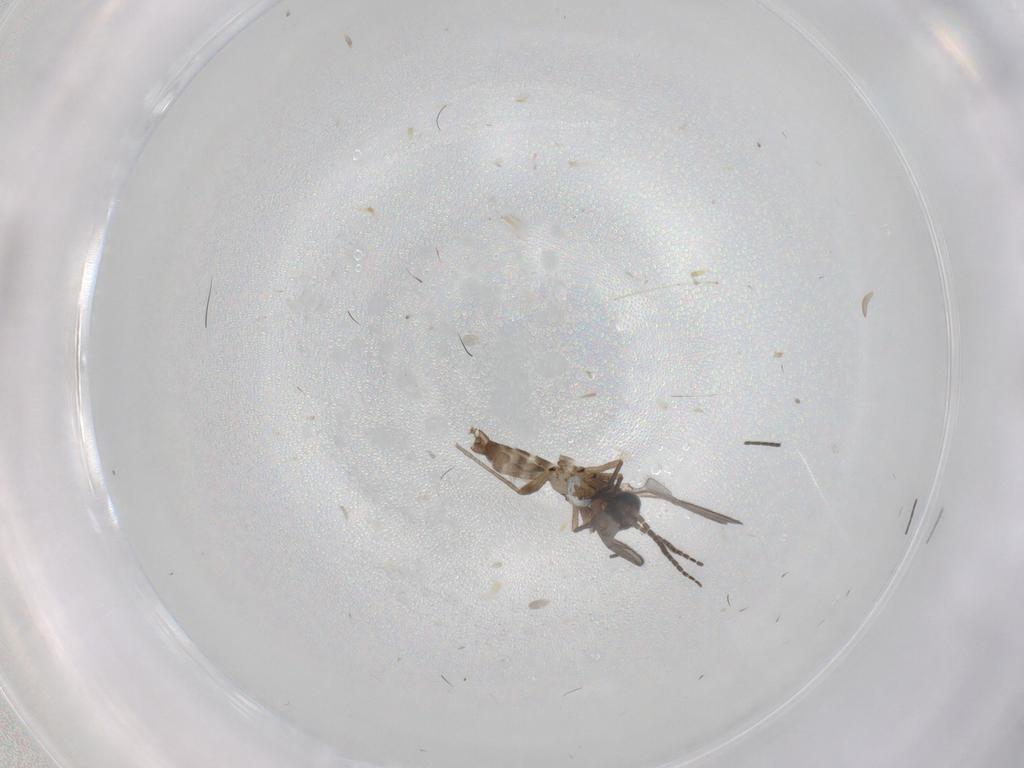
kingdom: Animalia
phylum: Arthropoda
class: Insecta
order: Diptera
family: Sciaridae
